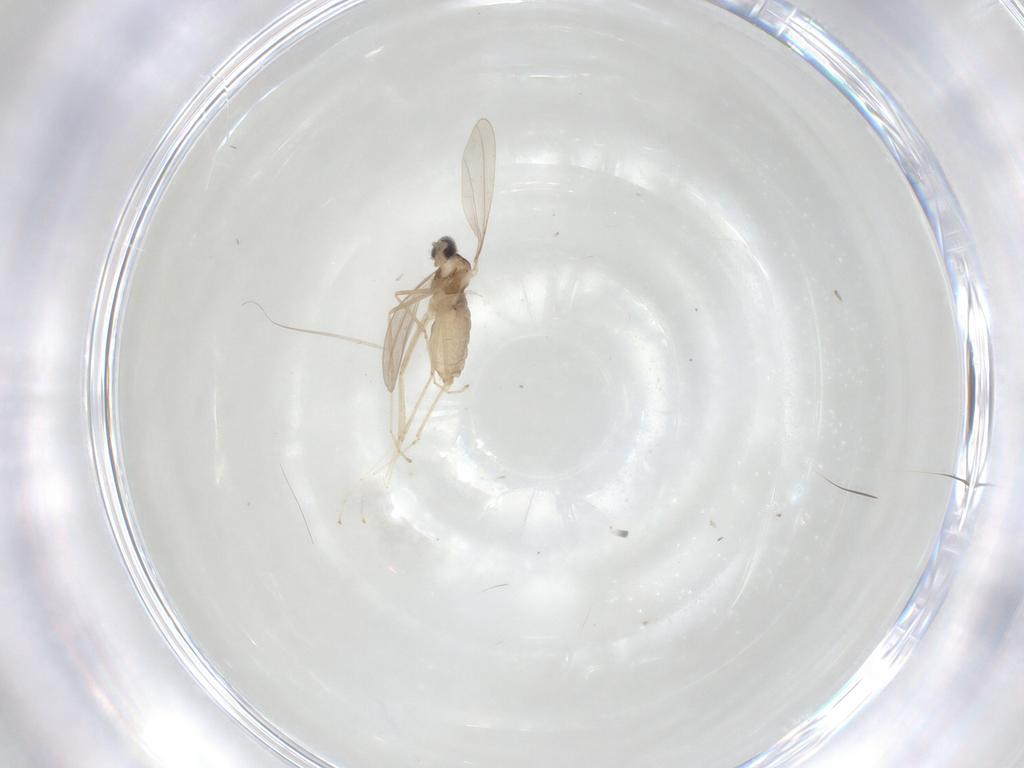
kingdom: Animalia
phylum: Arthropoda
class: Insecta
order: Diptera
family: Cecidomyiidae
